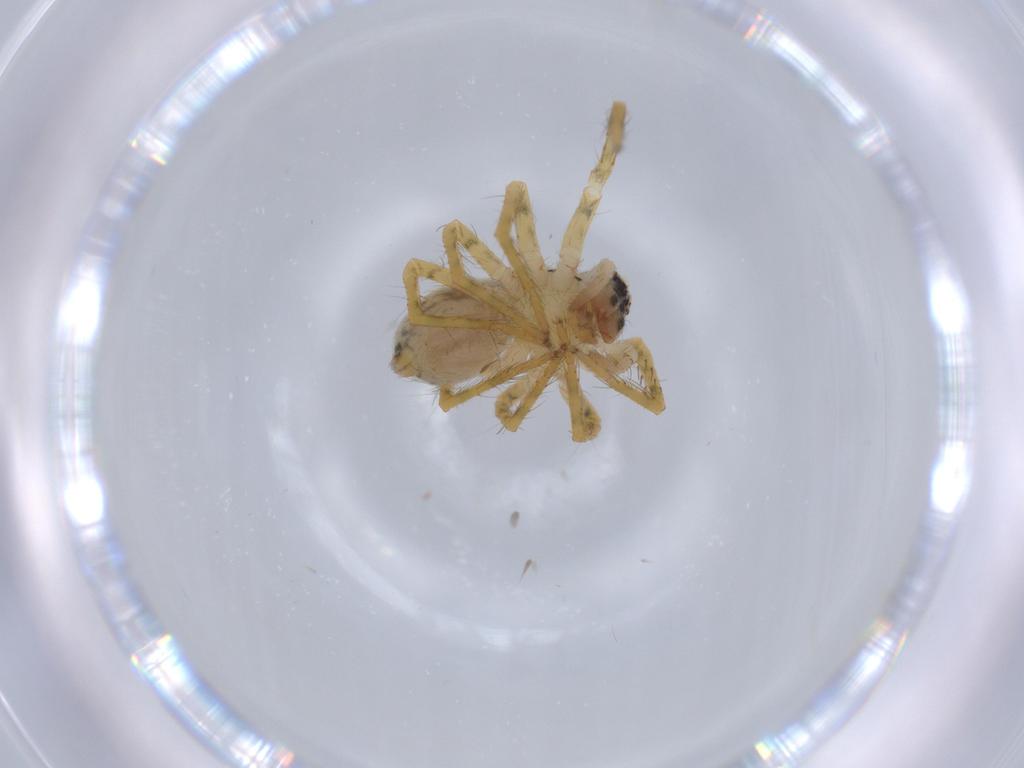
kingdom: Animalia
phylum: Arthropoda
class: Arachnida
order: Araneae
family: Trechaleidae
